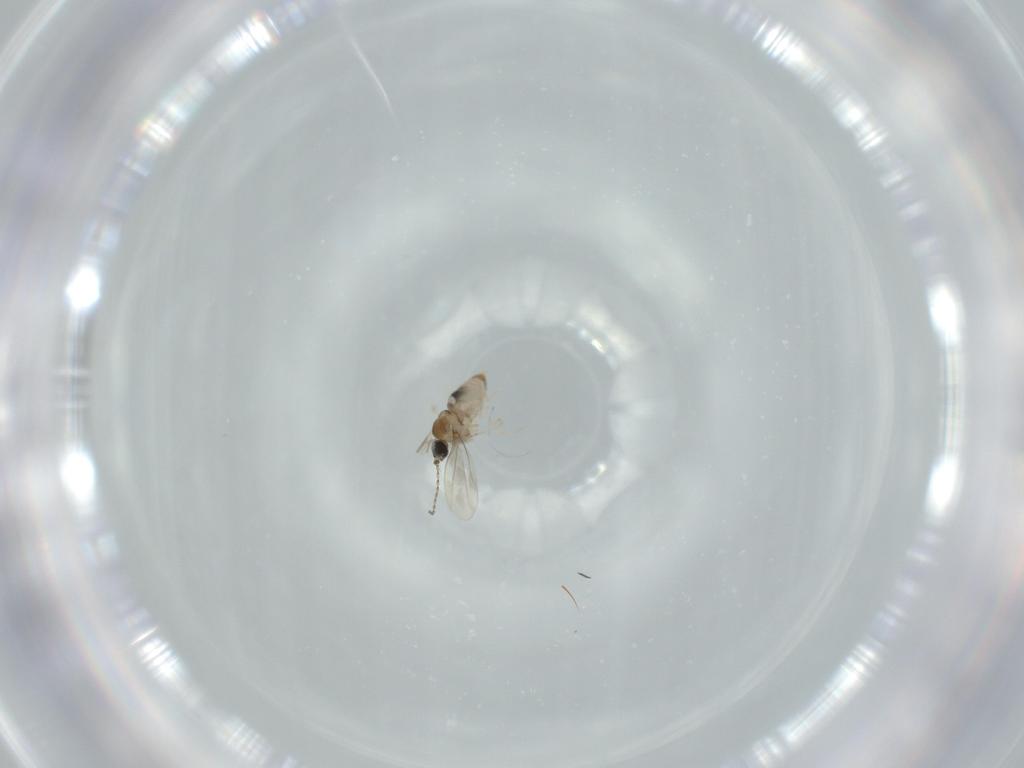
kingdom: Animalia
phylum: Arthropoda
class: Insecta
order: Diptera
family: Cecidomyiidae
